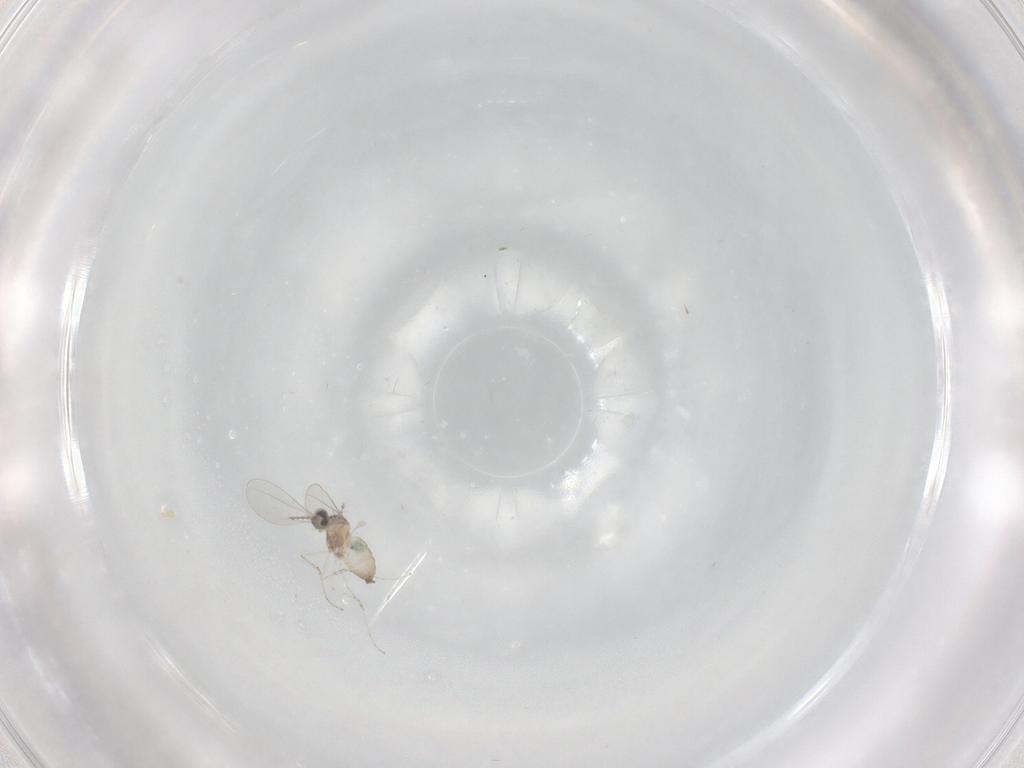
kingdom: Animalia
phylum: Arthropoda
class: Insecta
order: Diptera
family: Cecidomyiidae
